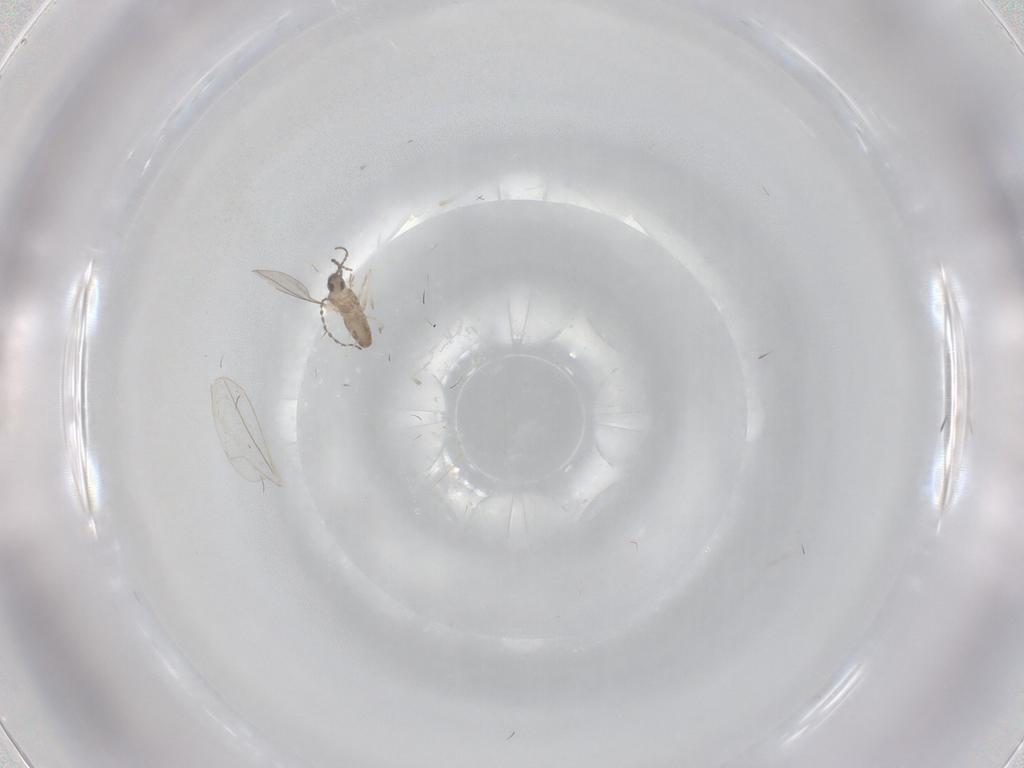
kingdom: Animalia
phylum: Arthropoda
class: Insecta
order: Diptera
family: Cecidomyiidae
